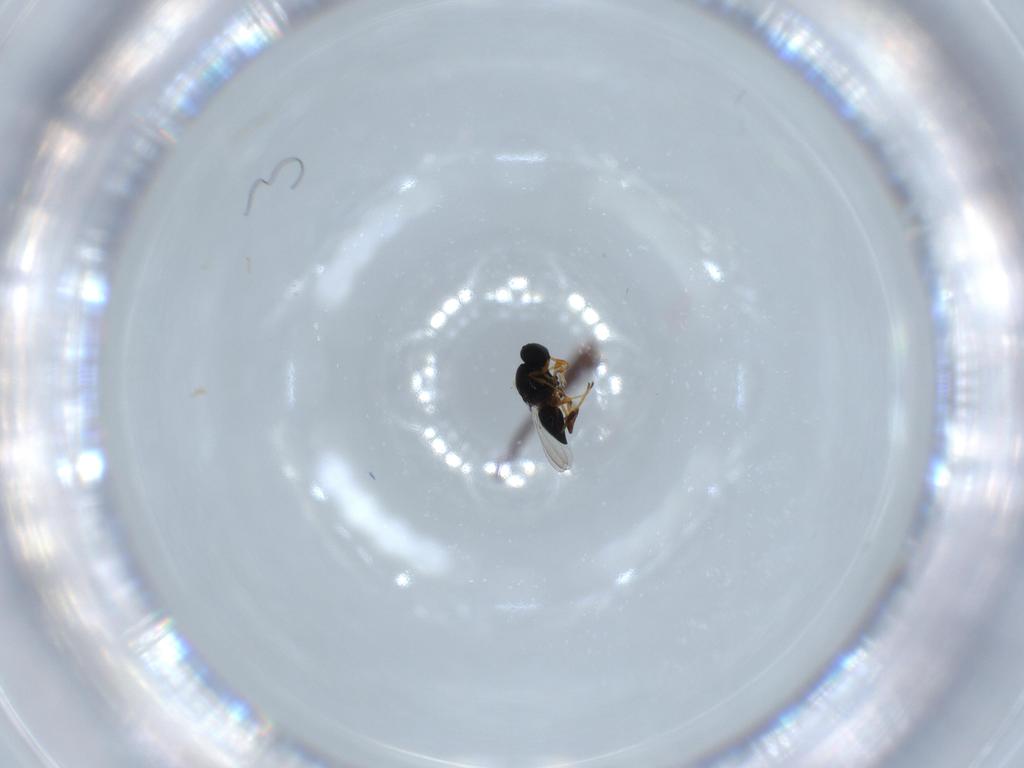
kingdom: Animalia
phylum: Arthropoda
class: Insecta
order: Hymenoptera
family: Platygastridae
